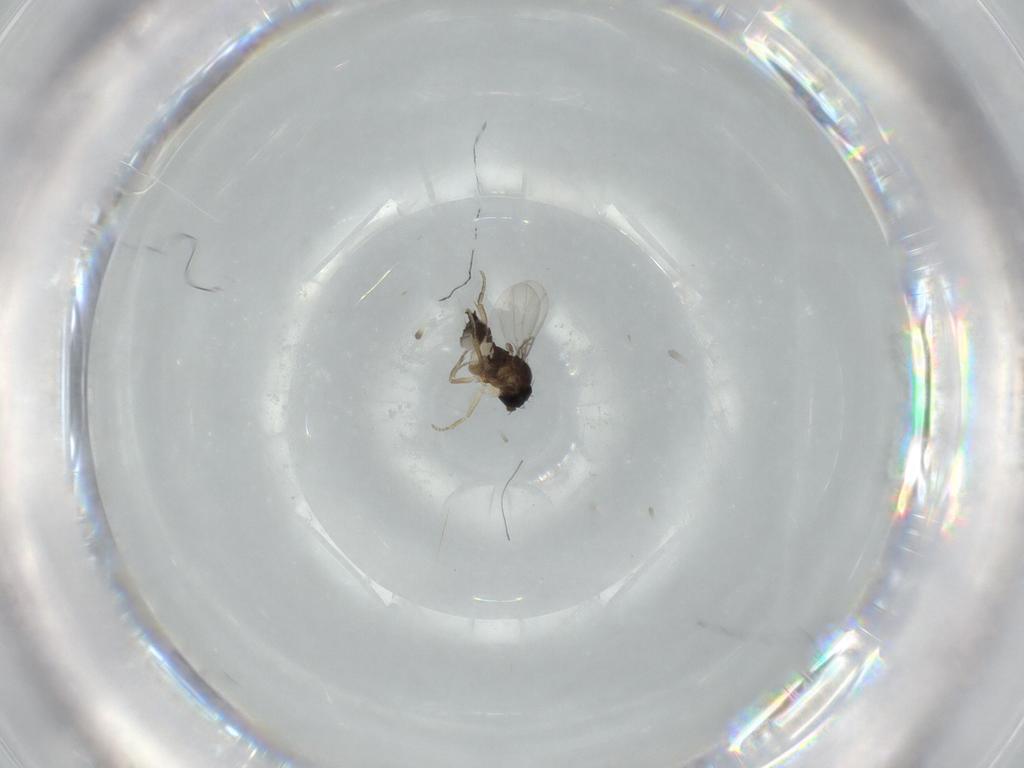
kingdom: Animalia
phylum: Arthropoda
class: Insecta
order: Diptera
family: Phoridae
